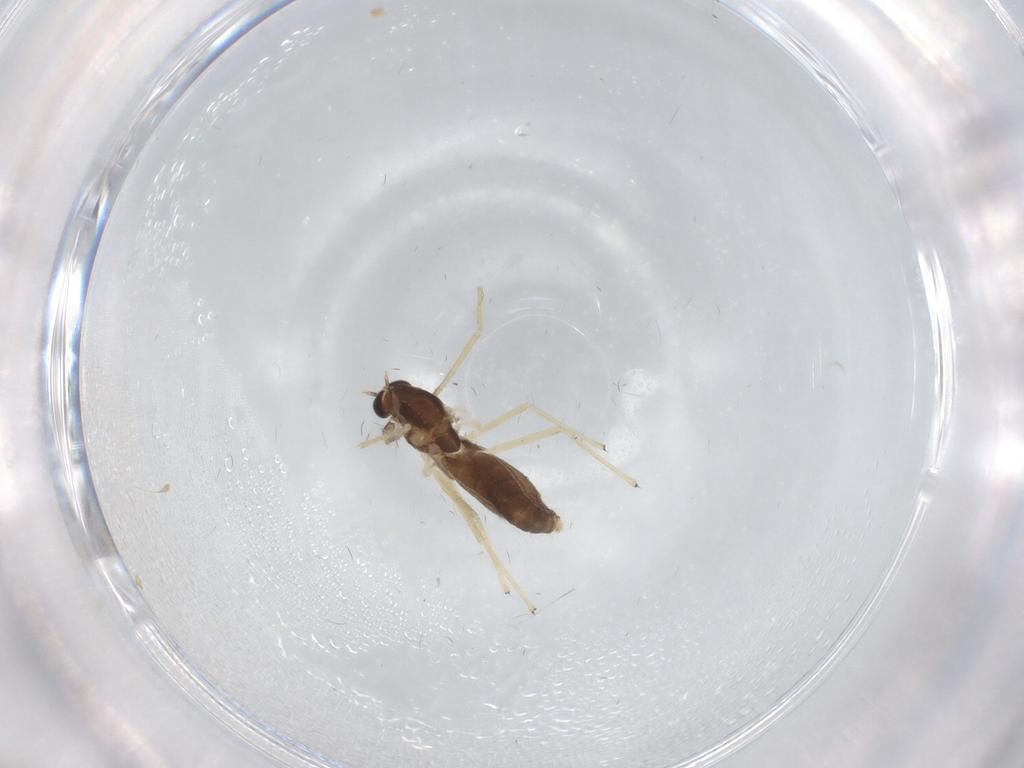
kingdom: Animalia
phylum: Arthropoda
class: Insecta
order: Diptera
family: Chironomidae
